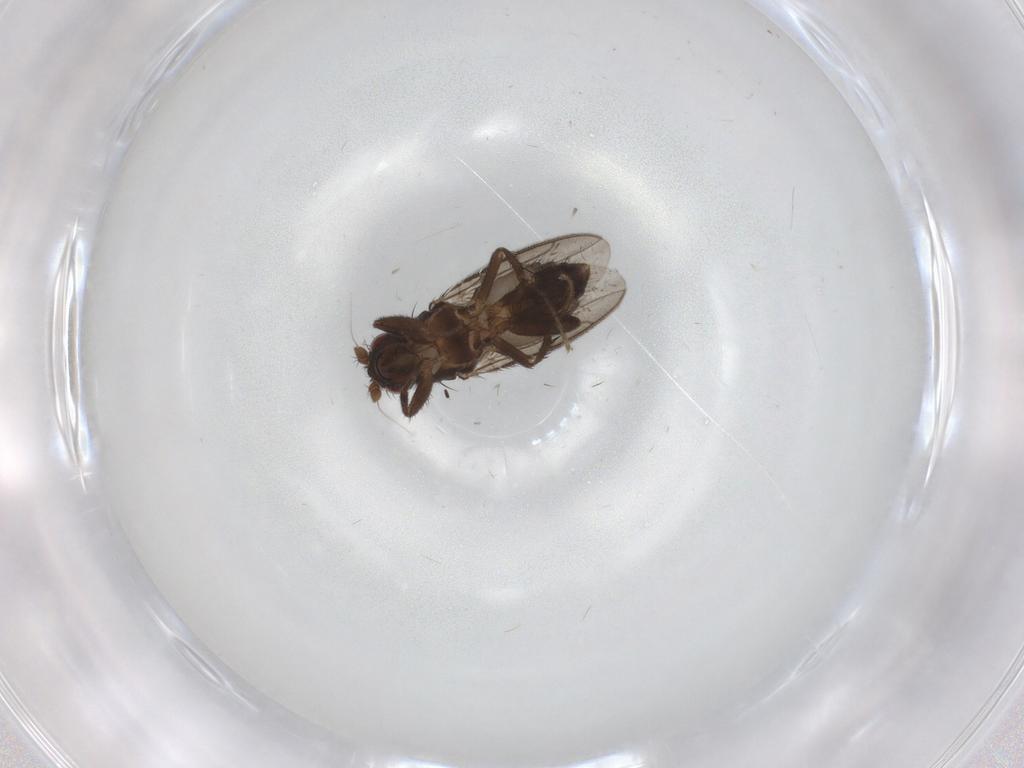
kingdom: Animalia
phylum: Arthropoda
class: Insecta
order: Diptera
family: Sphaeroceridae
